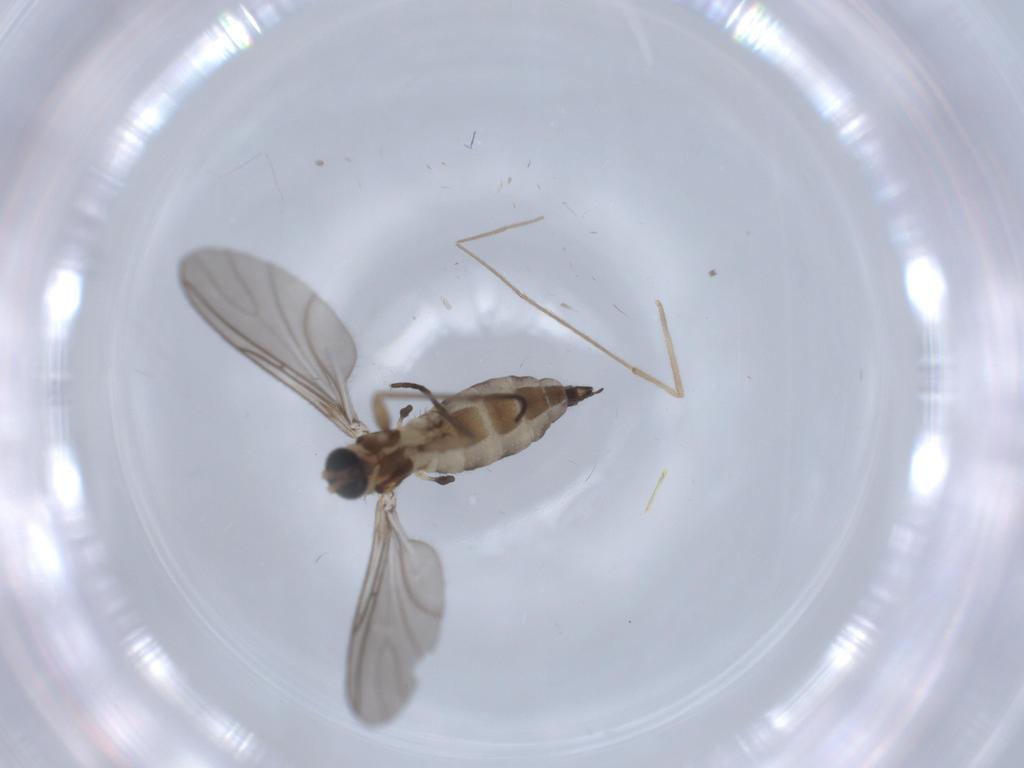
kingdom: Animalia
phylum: Arthropoda
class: Insecta
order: Diptera
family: Sciaridae
